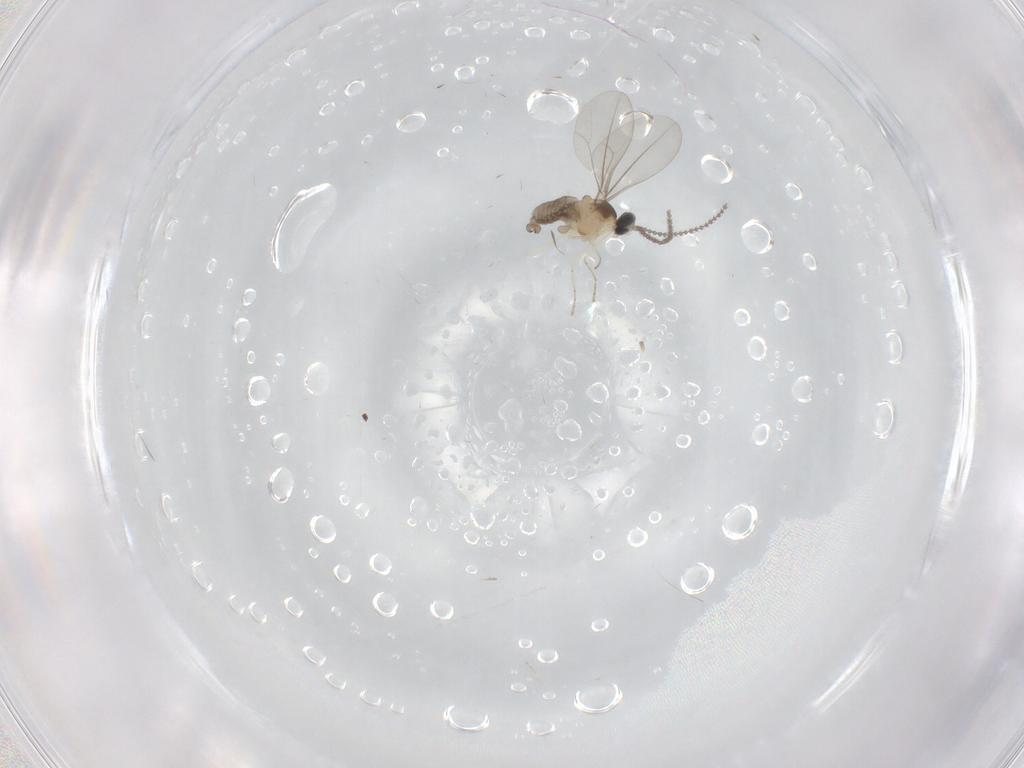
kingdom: Animalia
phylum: Arthropoda
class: Insecta
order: Diptera
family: Cecidomyiidae
